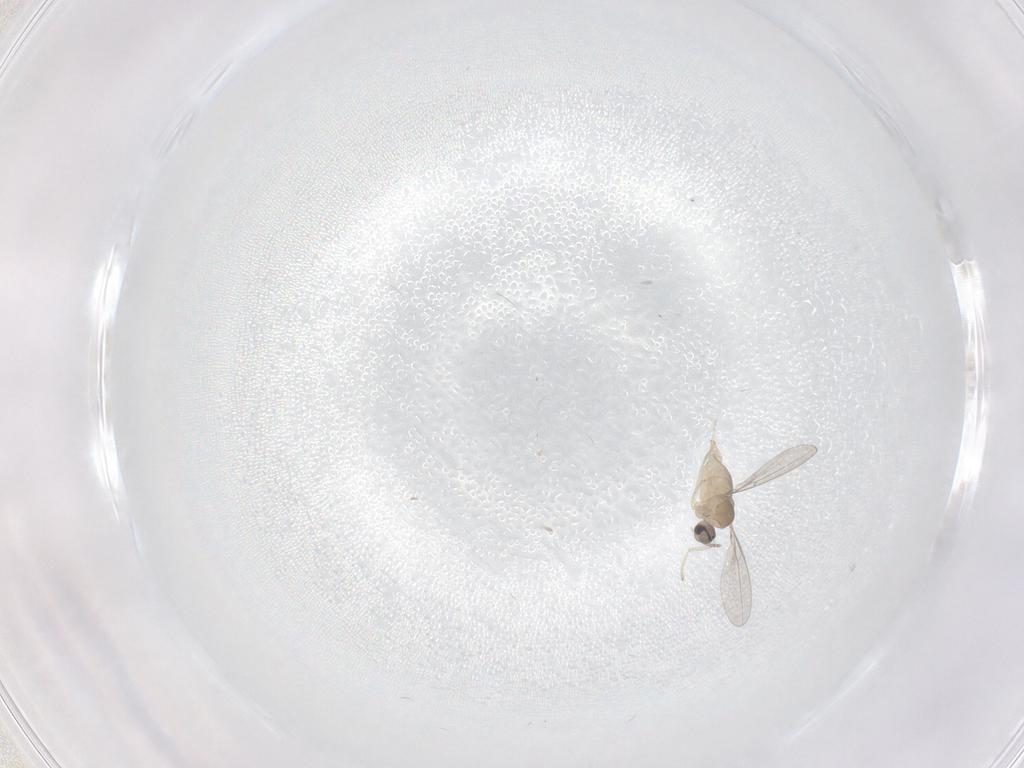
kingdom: Animalia
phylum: Arthropoda
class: Insecta
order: Diptera
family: Cecidomyiidae
